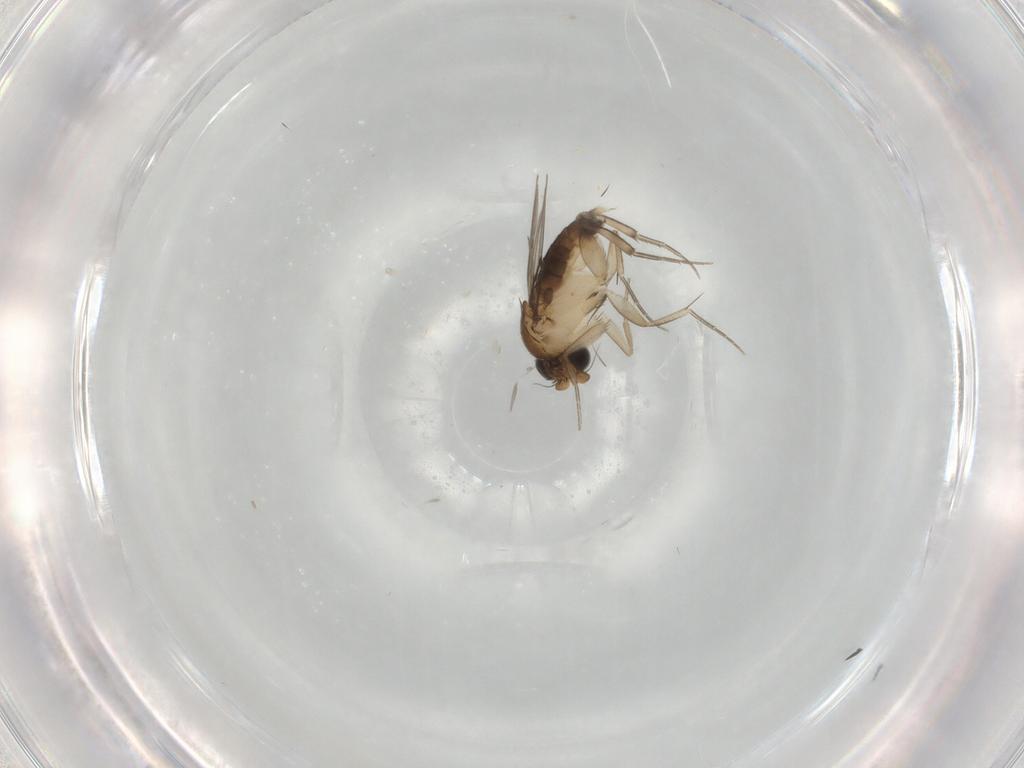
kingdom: Animalia
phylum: Arthropoda
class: Insecta
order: Diptera
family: Phoridae
